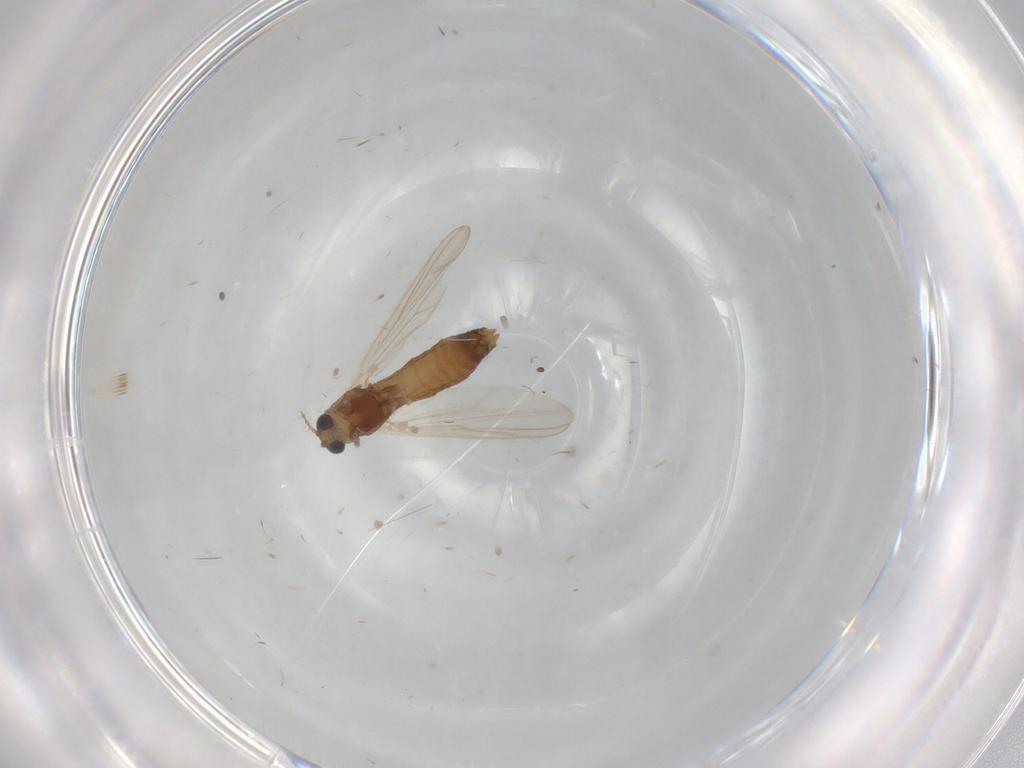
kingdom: Animalia
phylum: Arthropoda
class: Insecta
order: Diptera
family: Chironomidae
